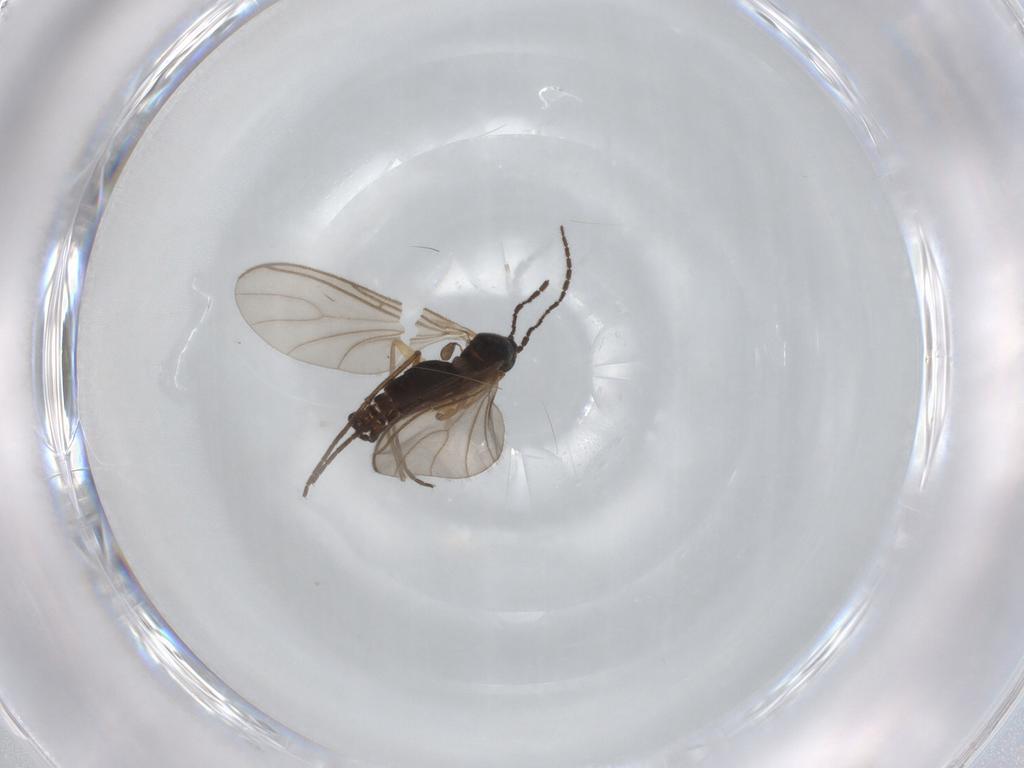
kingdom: Animalia
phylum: Arthropoda
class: Insecta
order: Diptera
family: Sciaridae
